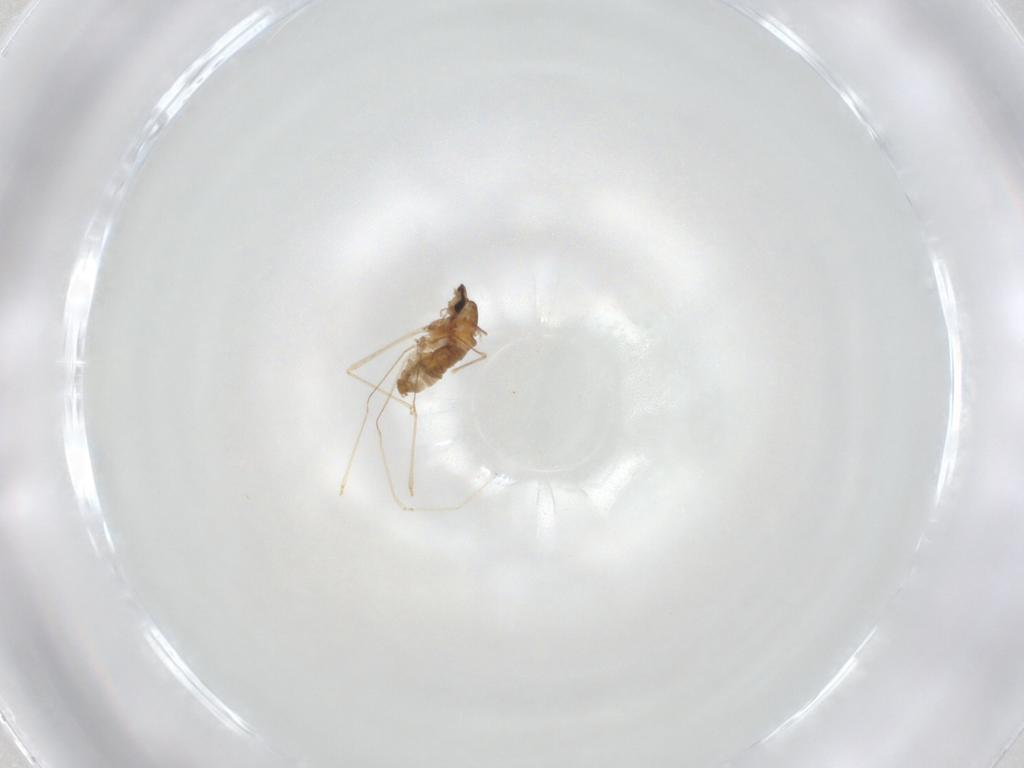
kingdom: Animalia
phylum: Arthropoda
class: Insecta
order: Diptera
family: Cecidomyiidae
